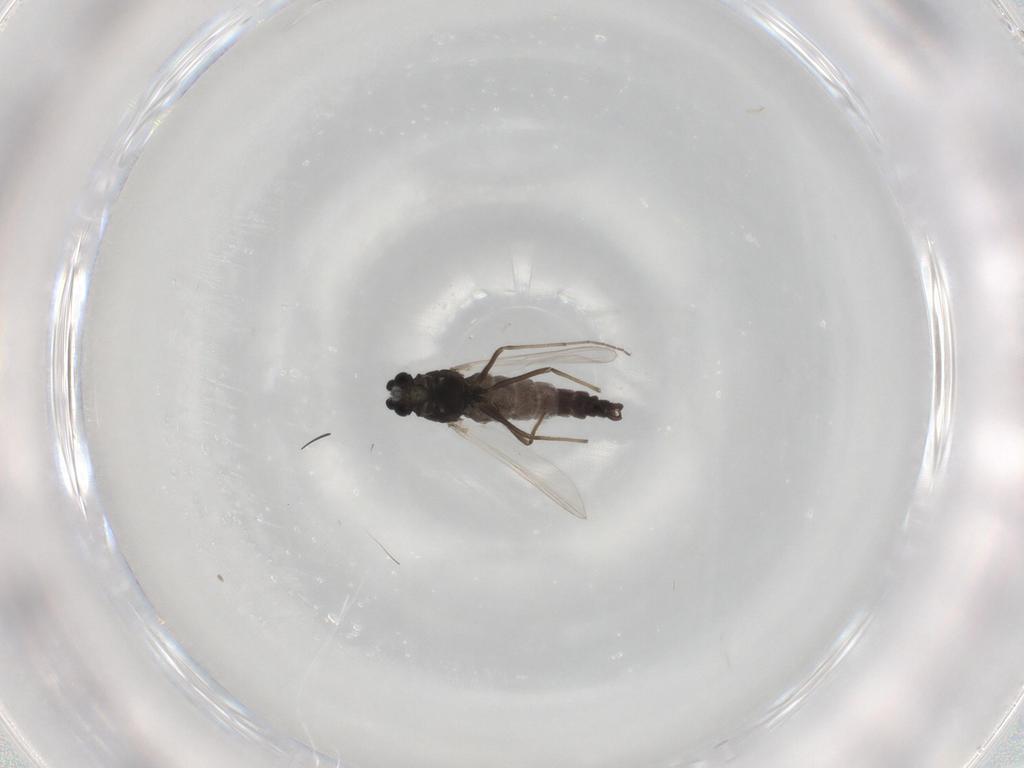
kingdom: Animalia
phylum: Arthropoda
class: Insecta
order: Diptera
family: Chironomidae
